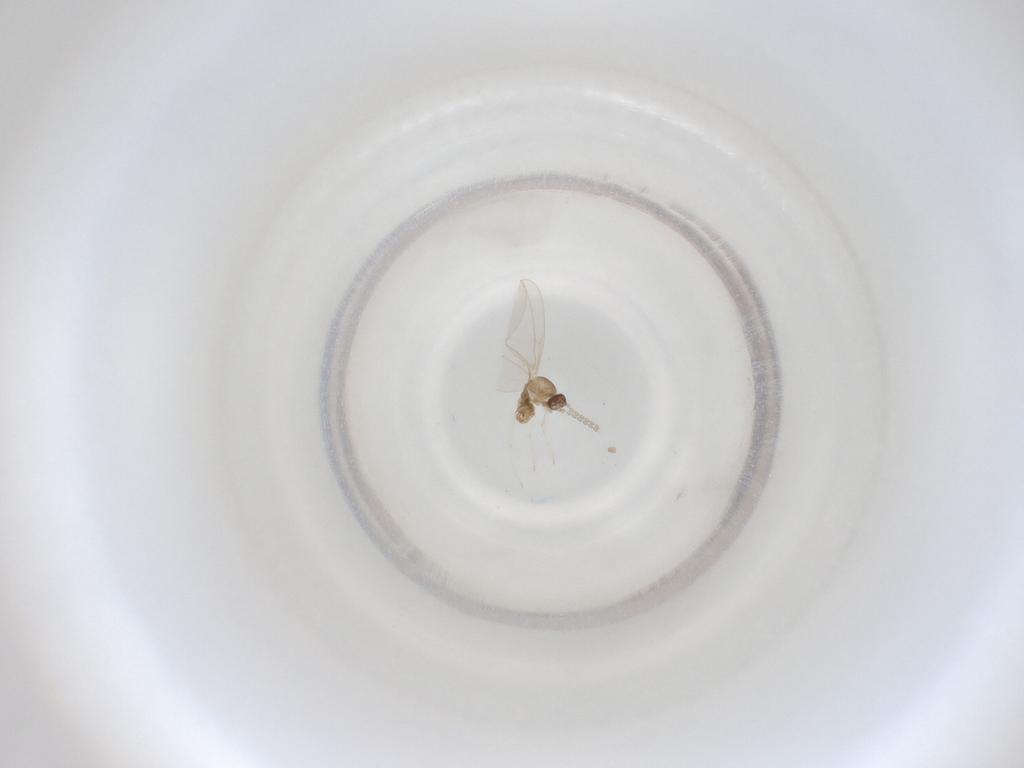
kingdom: Animalia
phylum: Arthropoda
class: Insecta
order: Diptera
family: Cecidomyiidae
